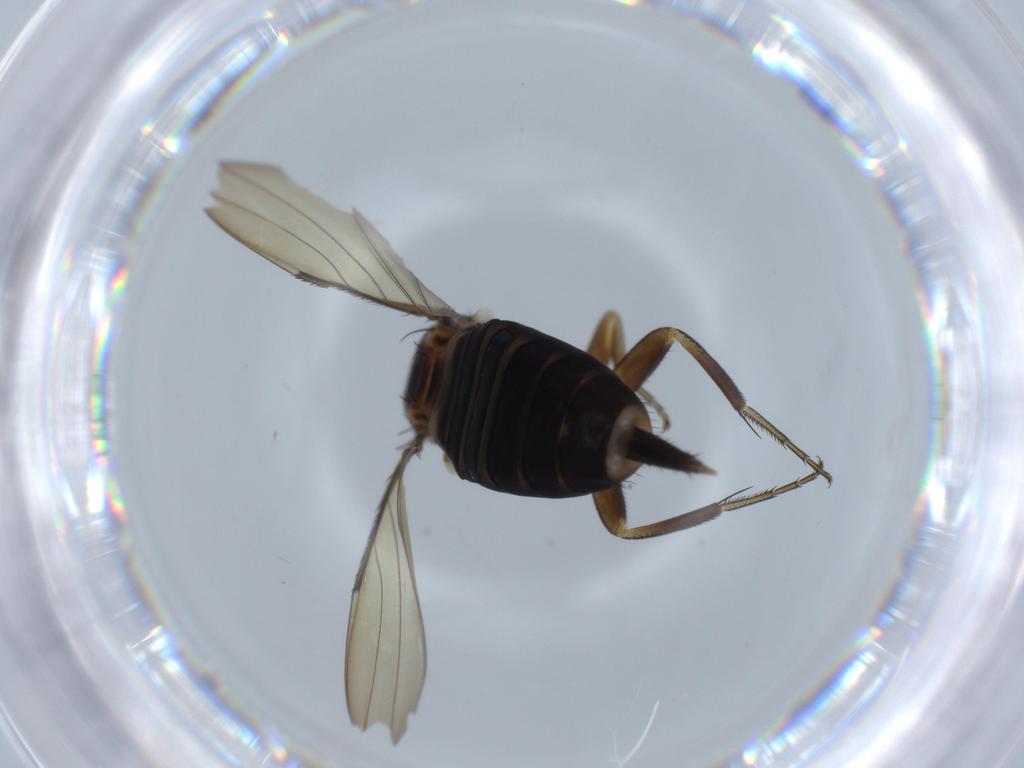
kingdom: Animalia
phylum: Arthropoda
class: Insecta
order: Diptera
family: Phoridae
